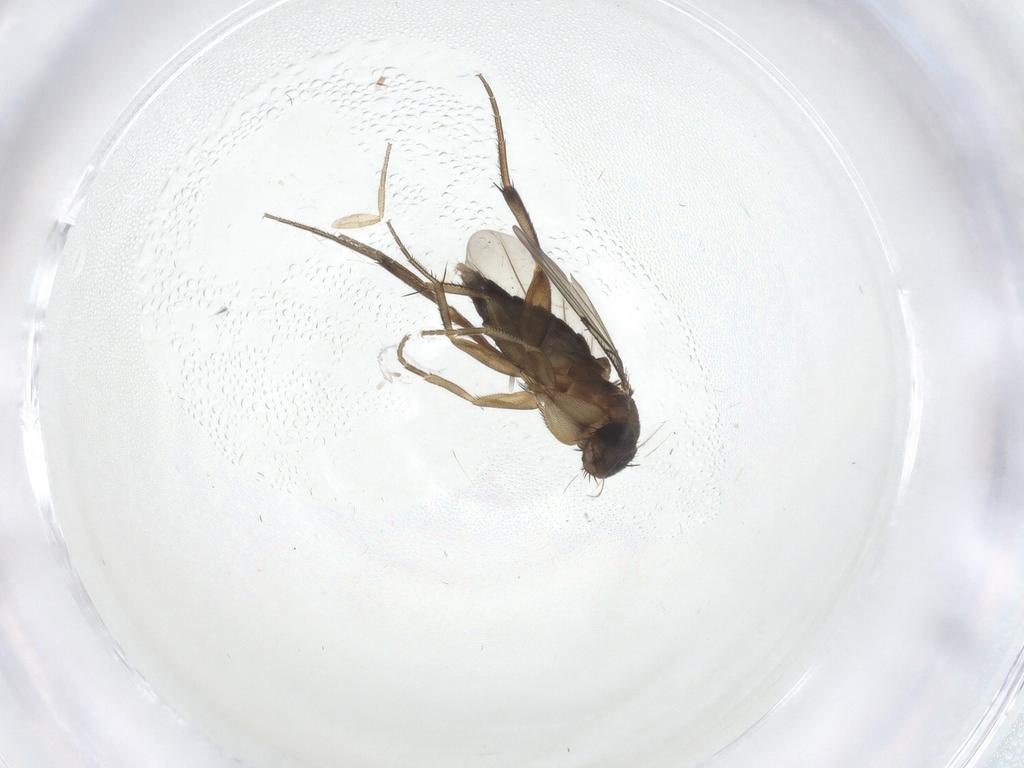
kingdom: Animalia
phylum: Arthropoda
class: Insecta
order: Diptera
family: Phoridae
